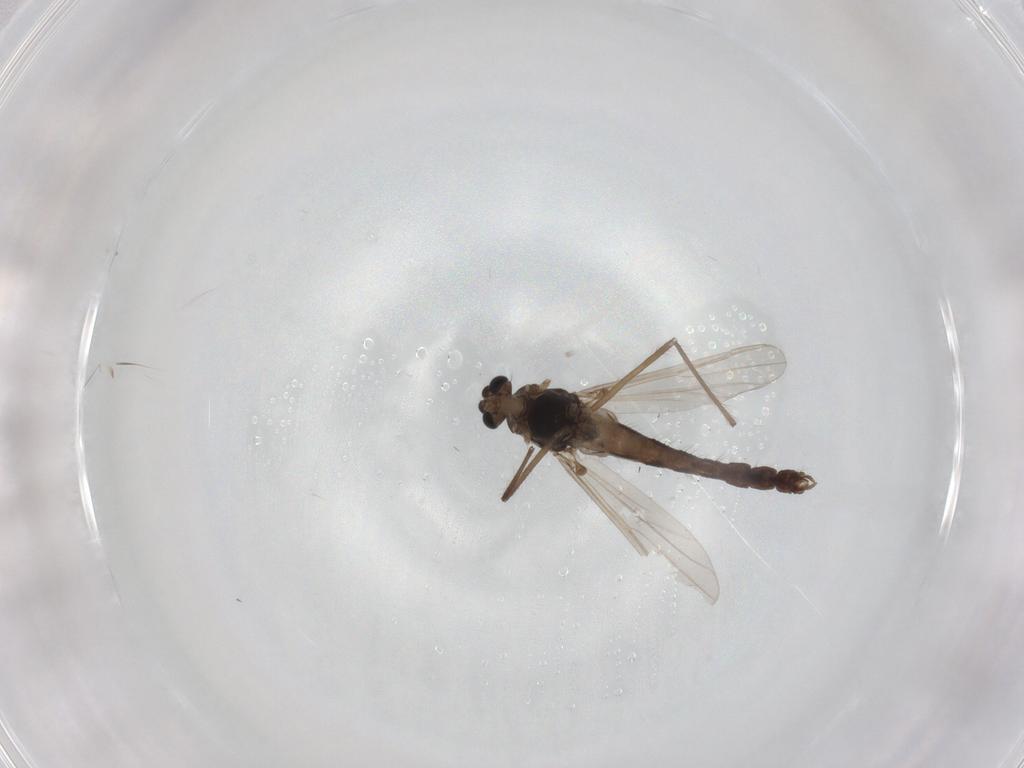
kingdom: Animalia
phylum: Arthropoda
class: Insecta
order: Diptera
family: Chironomidae
